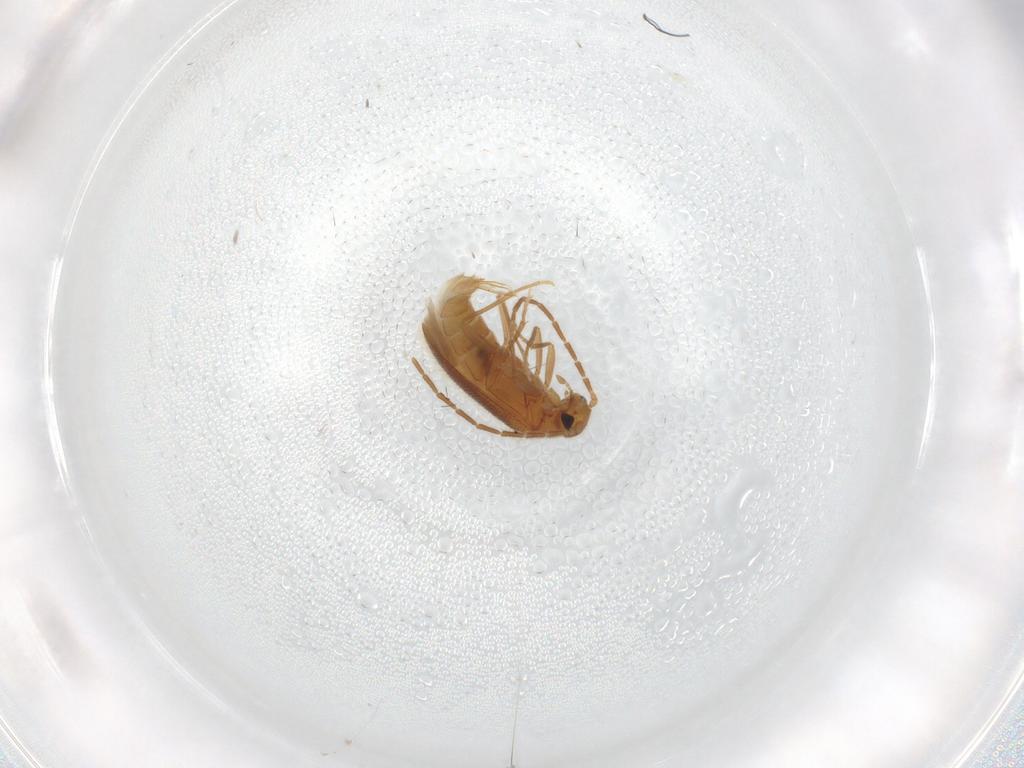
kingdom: Animalia
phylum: Arthropoda
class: Insecta
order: Coleoptera
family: Scraptiidae
